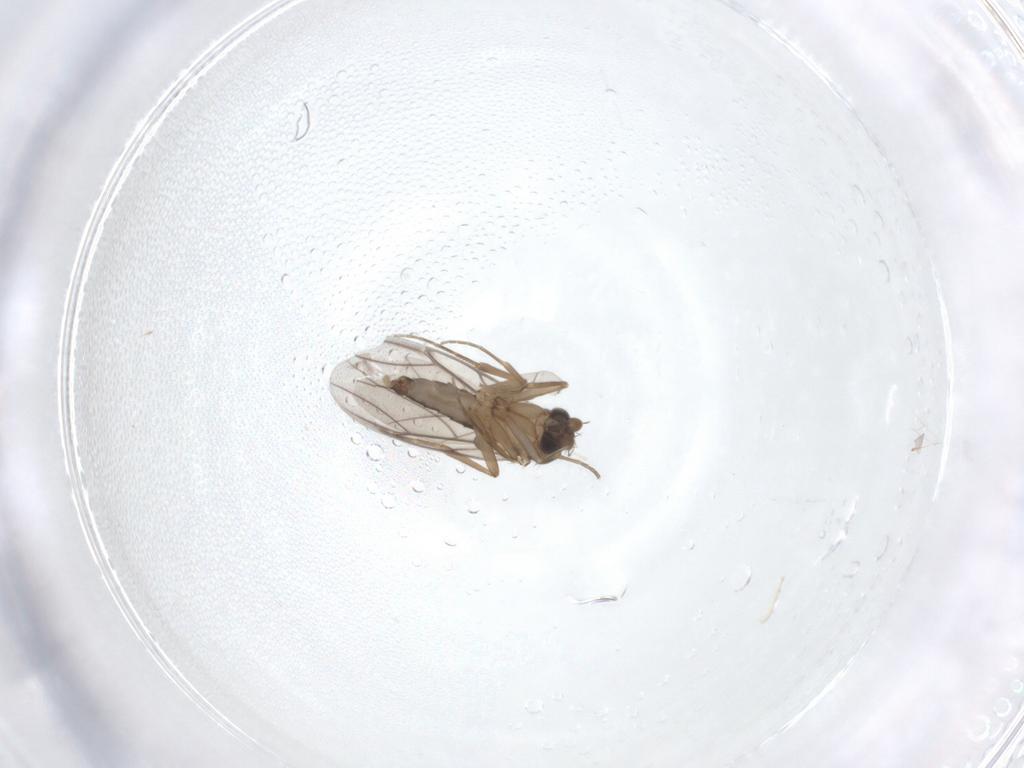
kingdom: Animalia
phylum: Arthropoda
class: Insecta
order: Diptera
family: Phoridae
